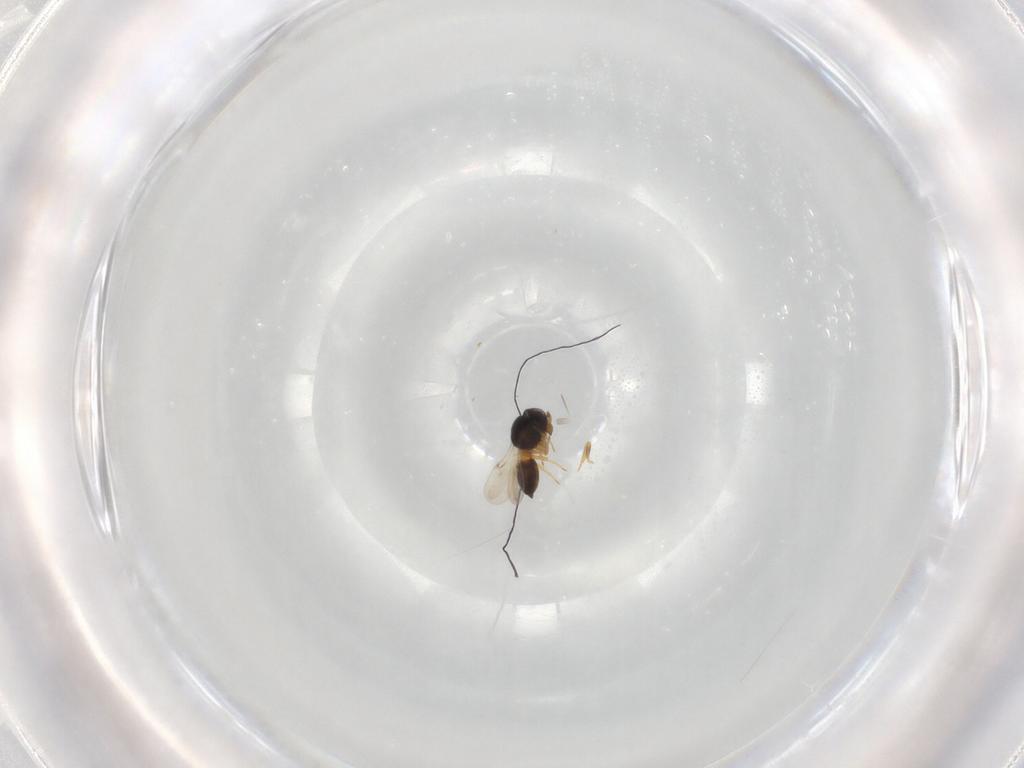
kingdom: Animalia
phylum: Arthropoda
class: Insecta
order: Hymenoptera
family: Scelionidae
